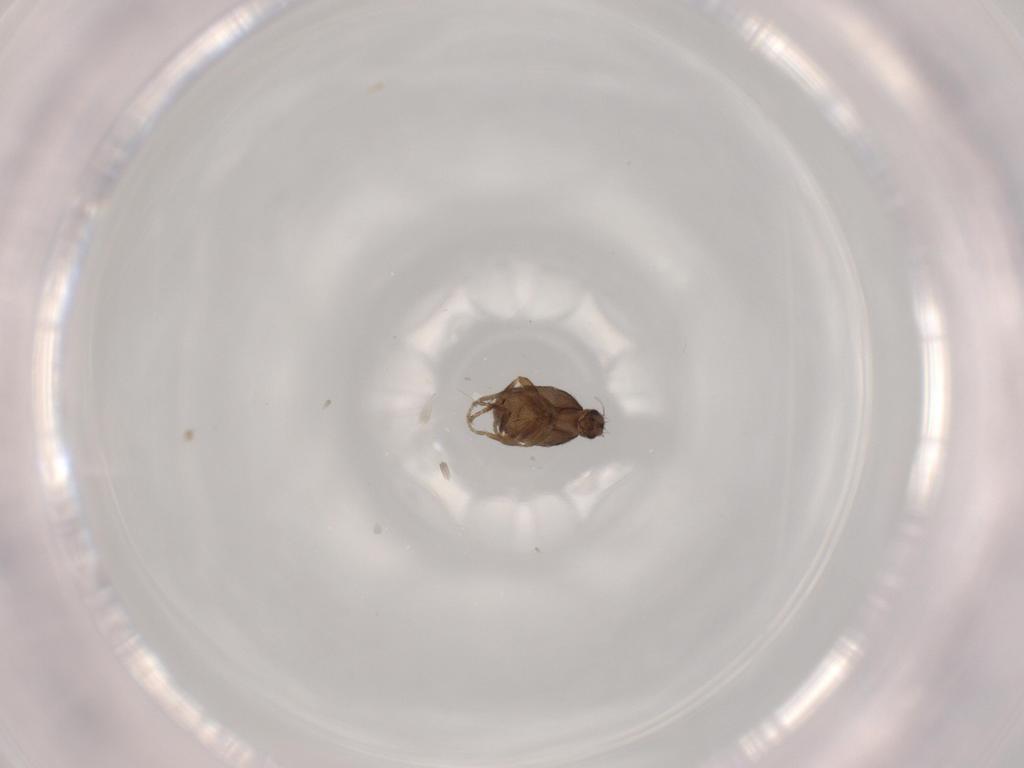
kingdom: Animalia
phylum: Arthropoda
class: Insecta
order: Diptera
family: Phoridae
